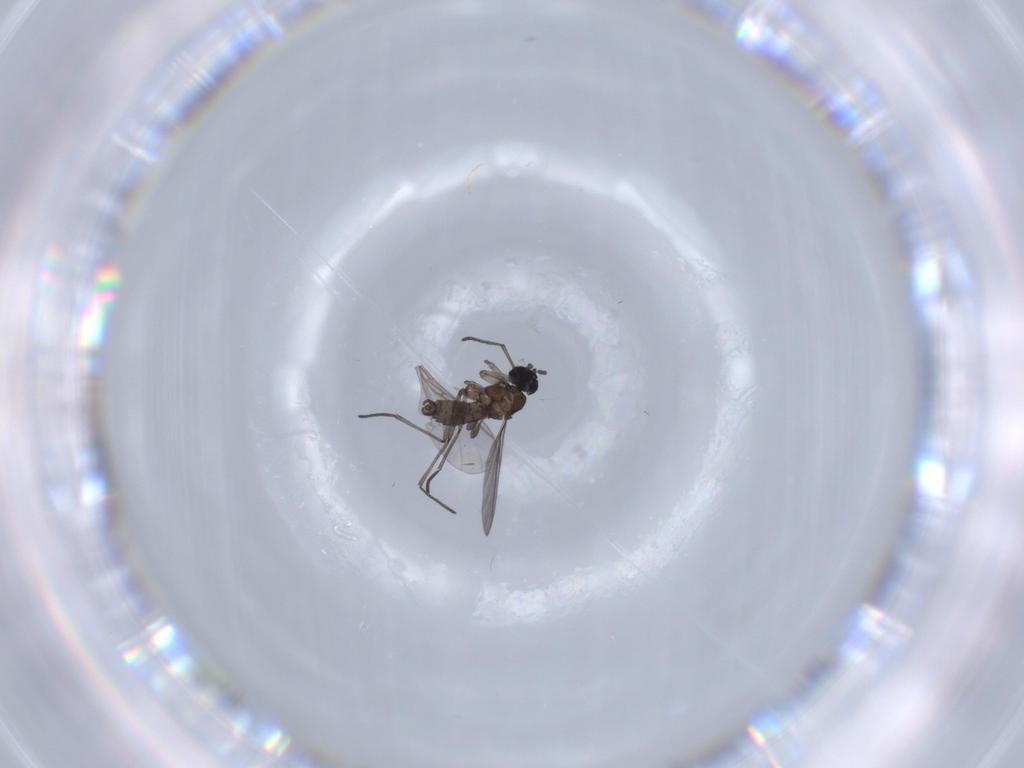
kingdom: Animalia
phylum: Arthropoda
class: Insecta
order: Diptera
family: Sciaridae
